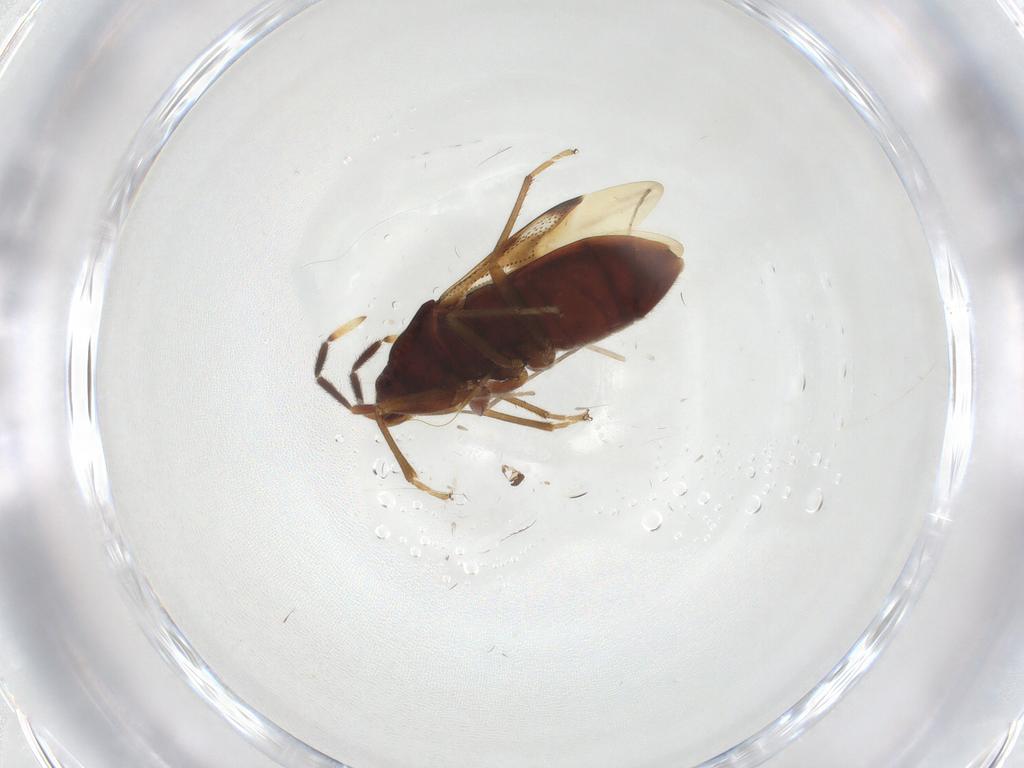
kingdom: Animalia
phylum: Arthropoda
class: Insecta
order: Hemiptera
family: Rhyparochromidae
